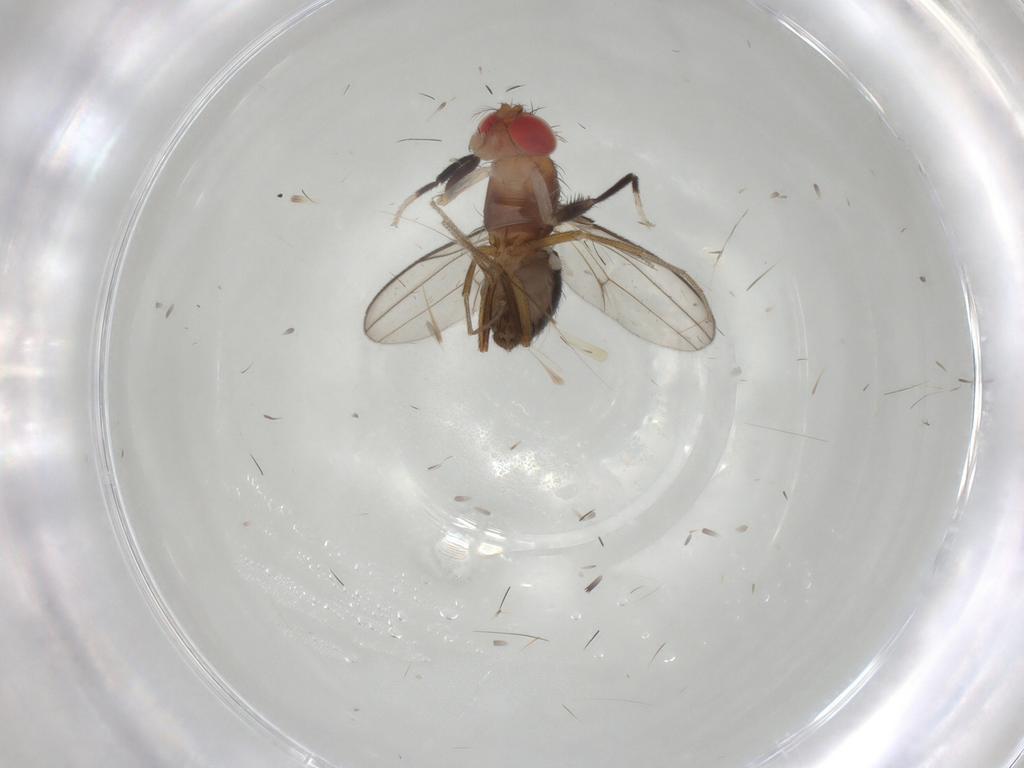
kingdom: Animalia
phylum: Arthropoda
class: Insecta
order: Diptera
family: Drosophilidae
